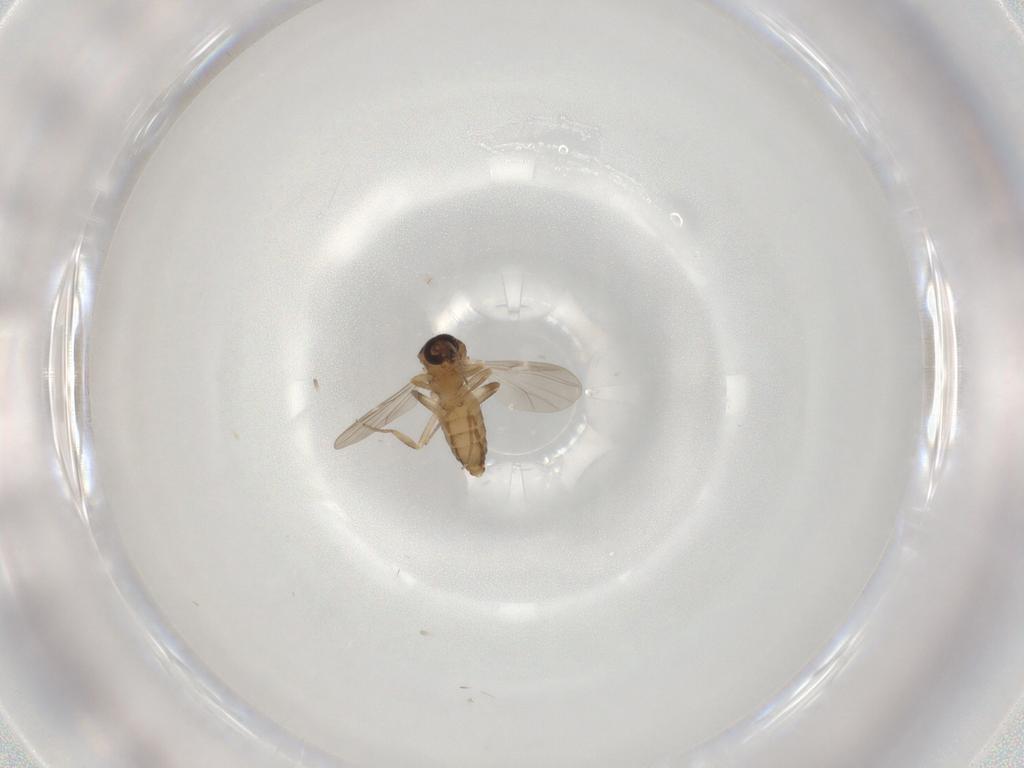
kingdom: Animalia
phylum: Arthropoda
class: Insecta
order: Diptera
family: Ceratopogonidae
